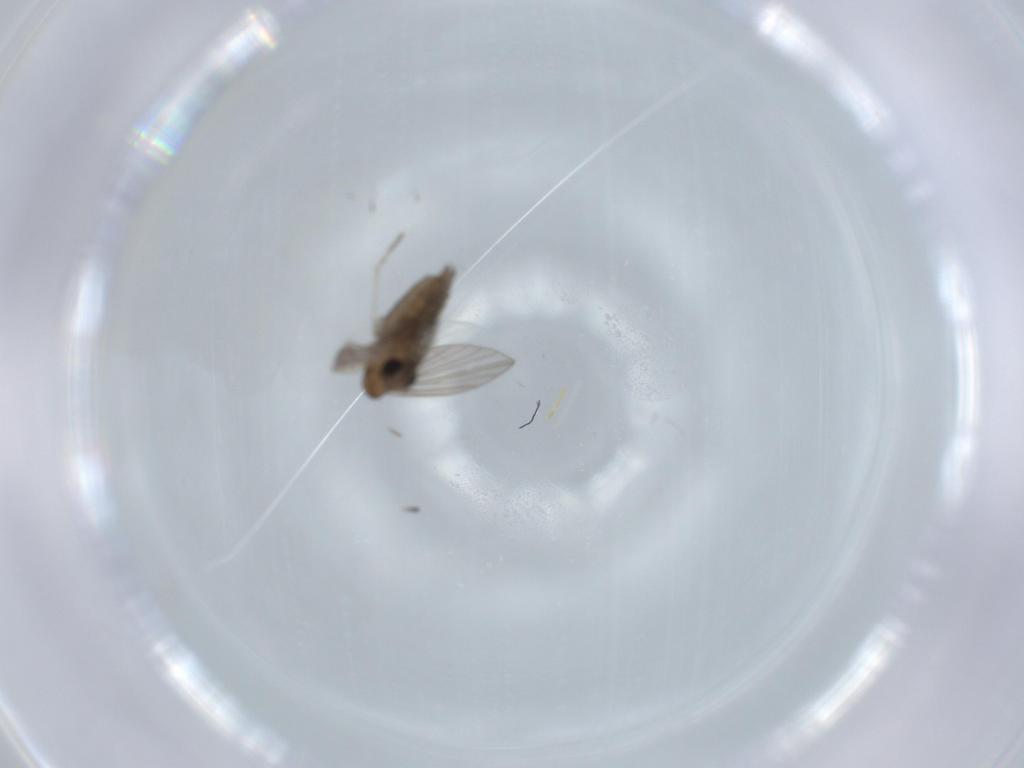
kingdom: Animalia
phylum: Arthropoda
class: Insecta
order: Diptera
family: Psychodidae
